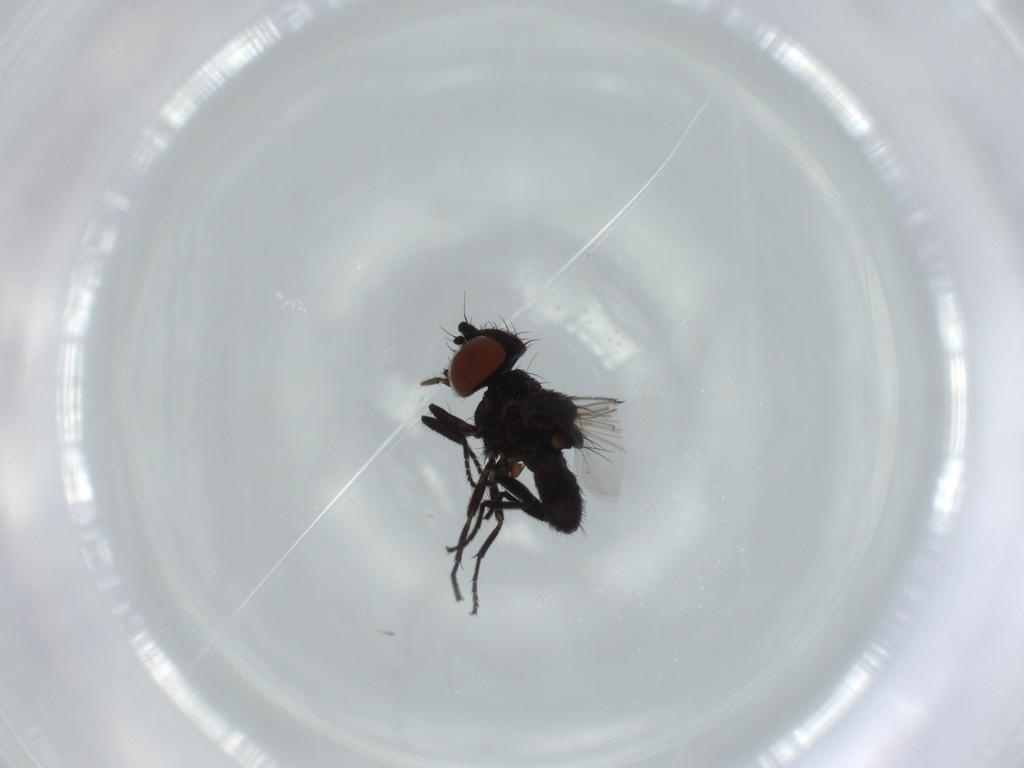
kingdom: Animalia
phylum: Arthropoda
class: Insecta
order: Diptera
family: Milichiidae
